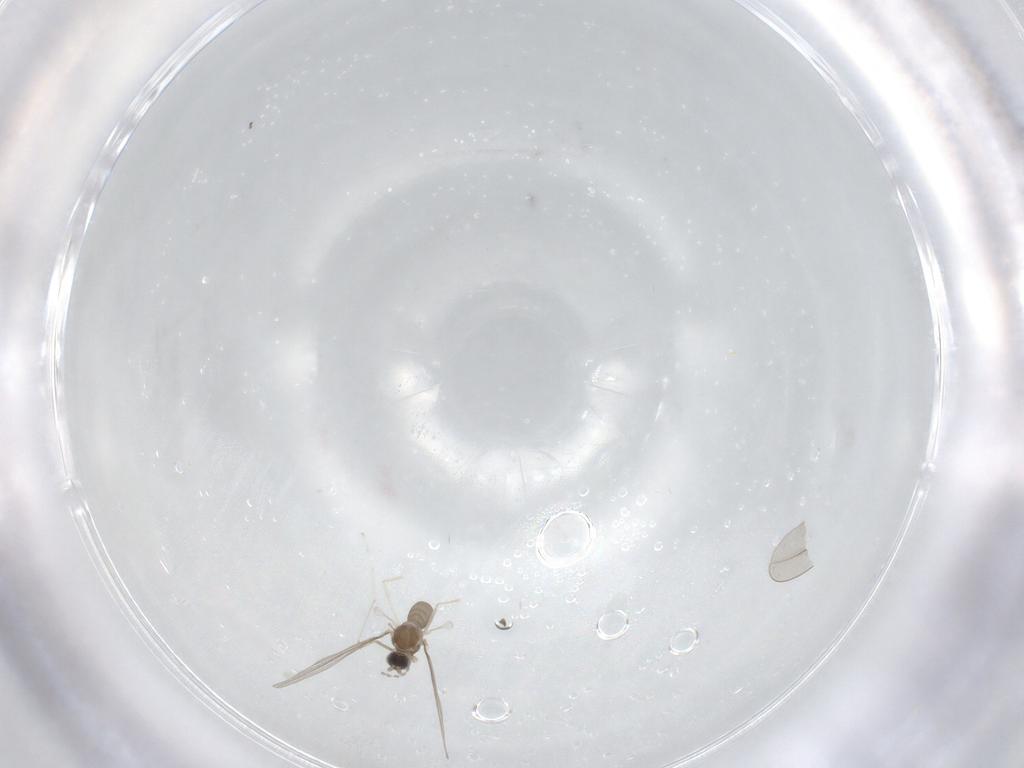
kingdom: Animalia
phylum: Arthropoda
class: Insecta
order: Diptera
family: Cecidomyiidae
